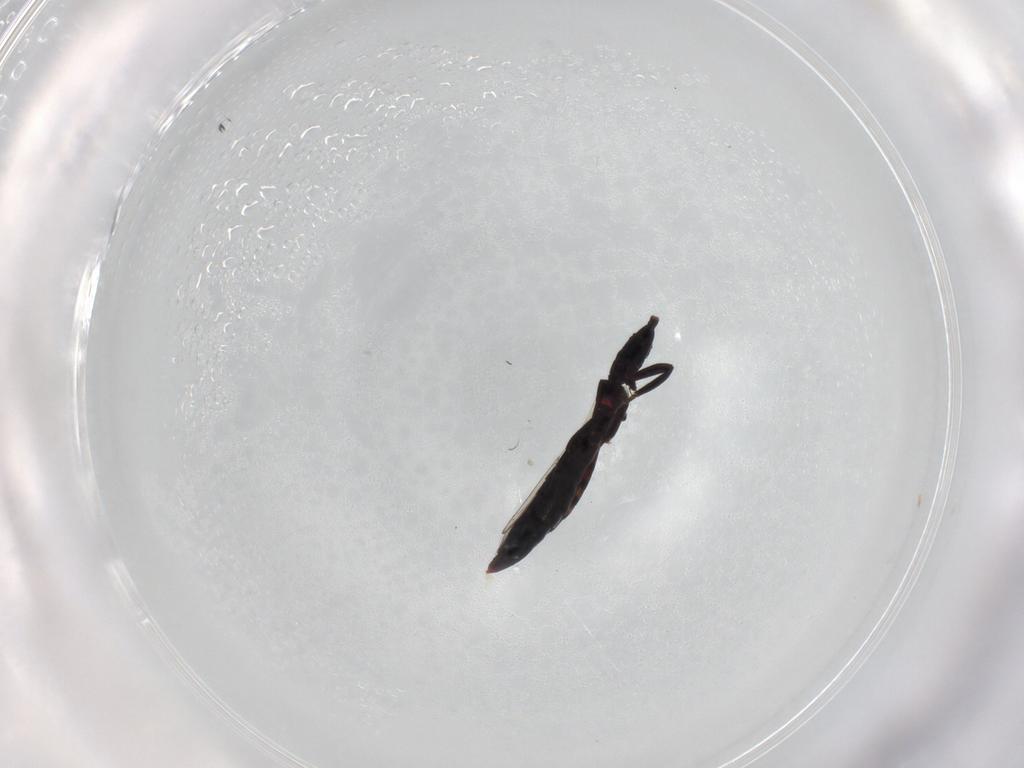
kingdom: Animalia
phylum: Arthropoda
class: Insecta
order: Thysanoptera
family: Aeolothripidae
